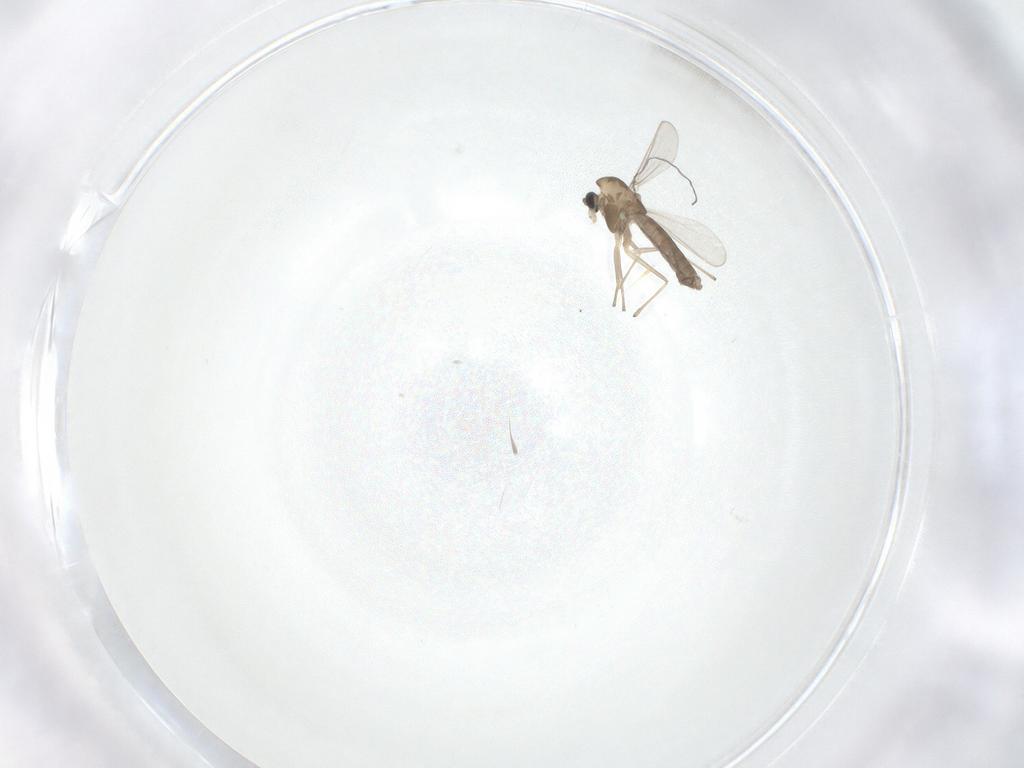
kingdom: Animalia
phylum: Arthropoda
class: Insecta
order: Diptera
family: Chironomidae
